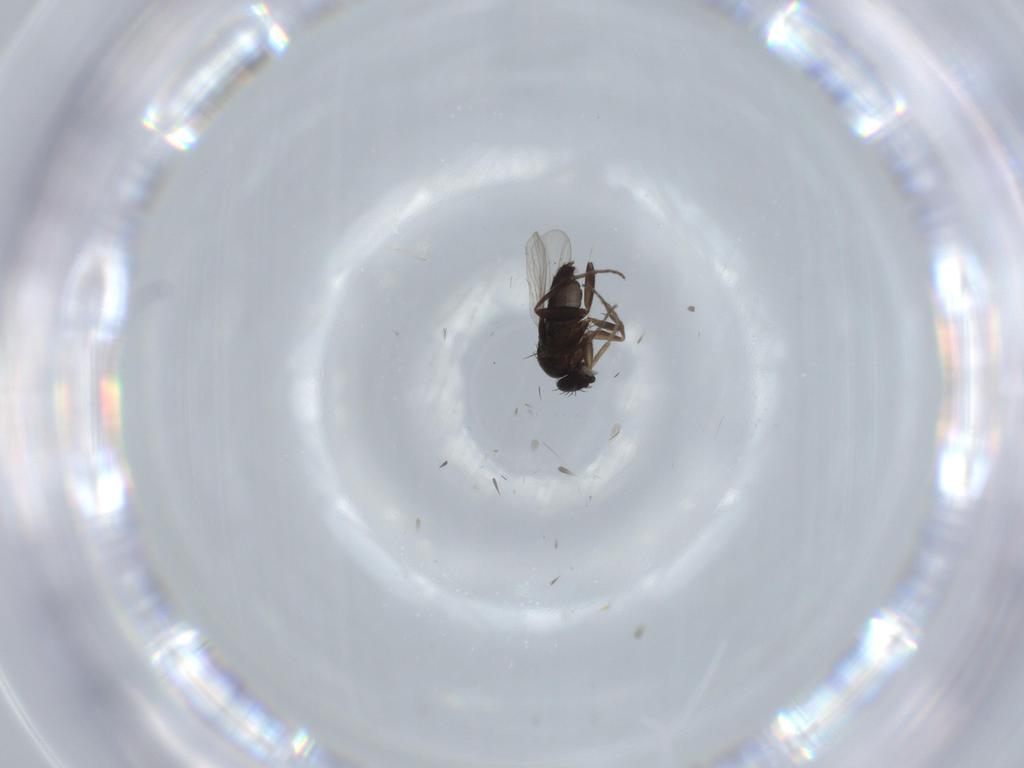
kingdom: Animalia
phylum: Arthropoda
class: Insecta
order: Diptera
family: Phoridae
